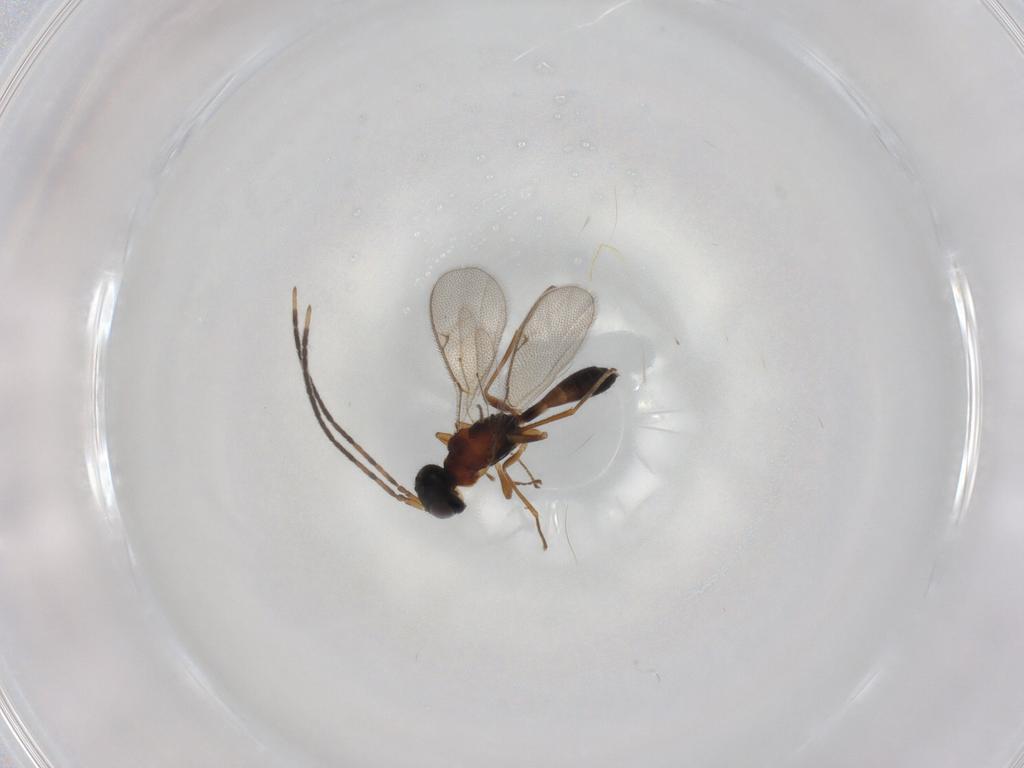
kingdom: Animalia
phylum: Arthropoda
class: Insecta
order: Hymenoptera
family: Pteromalidae
